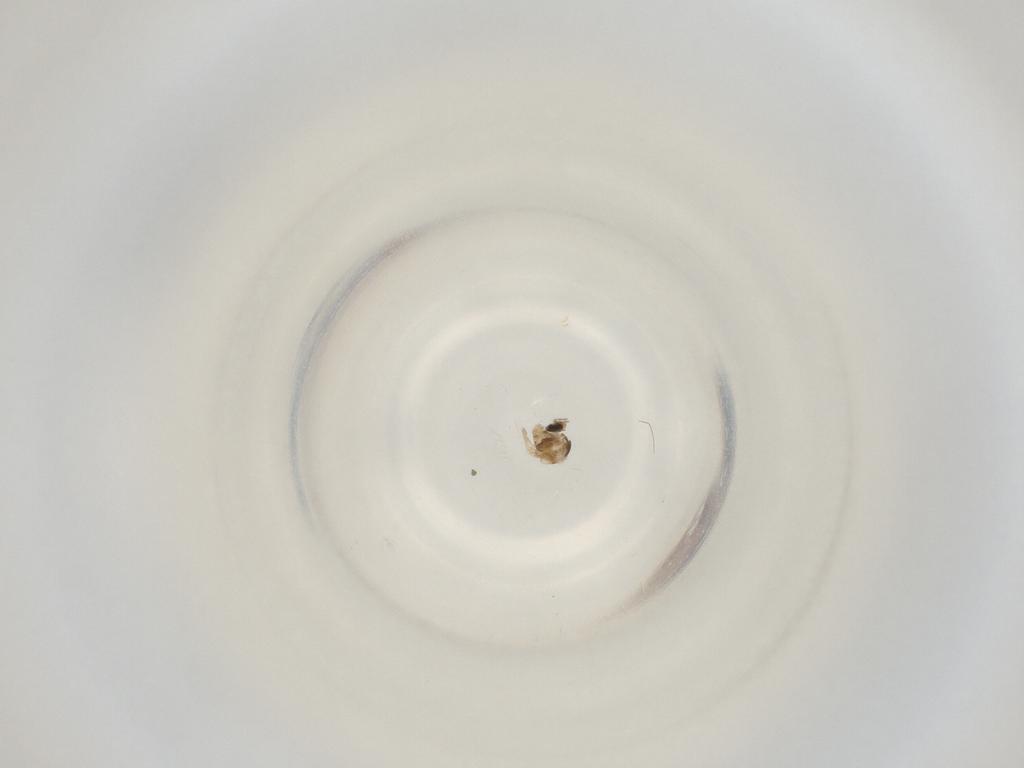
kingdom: Animalia
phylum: Arthropoda
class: Insecta
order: Diptera
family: Cecidomyiidae
